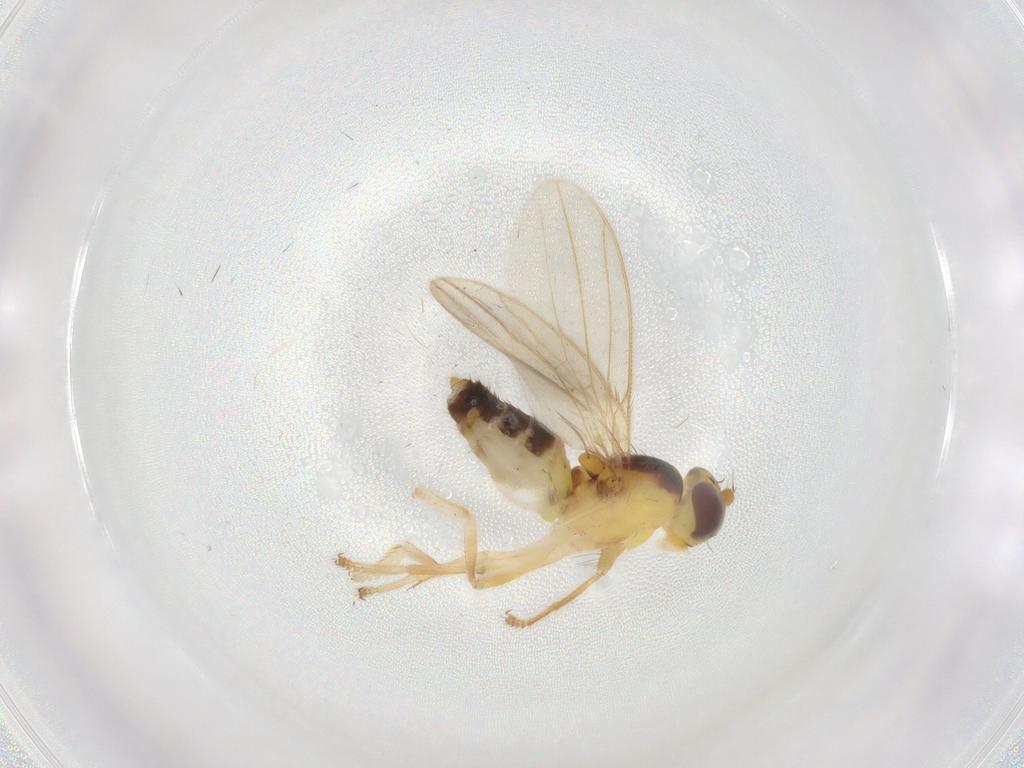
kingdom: Animalia
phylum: Arthropoda
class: Insecta
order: Diptera
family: Periscelididae
